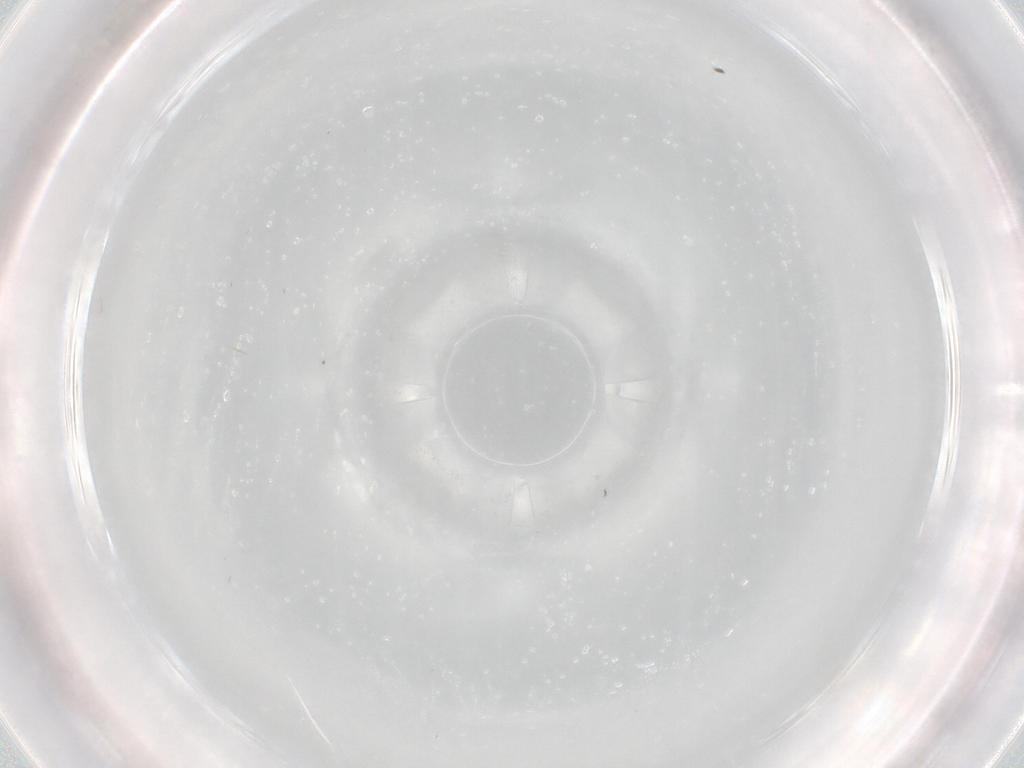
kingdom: Animalia
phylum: Arthropoda
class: Insecta
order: Diptera
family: Cecidomyiidae
